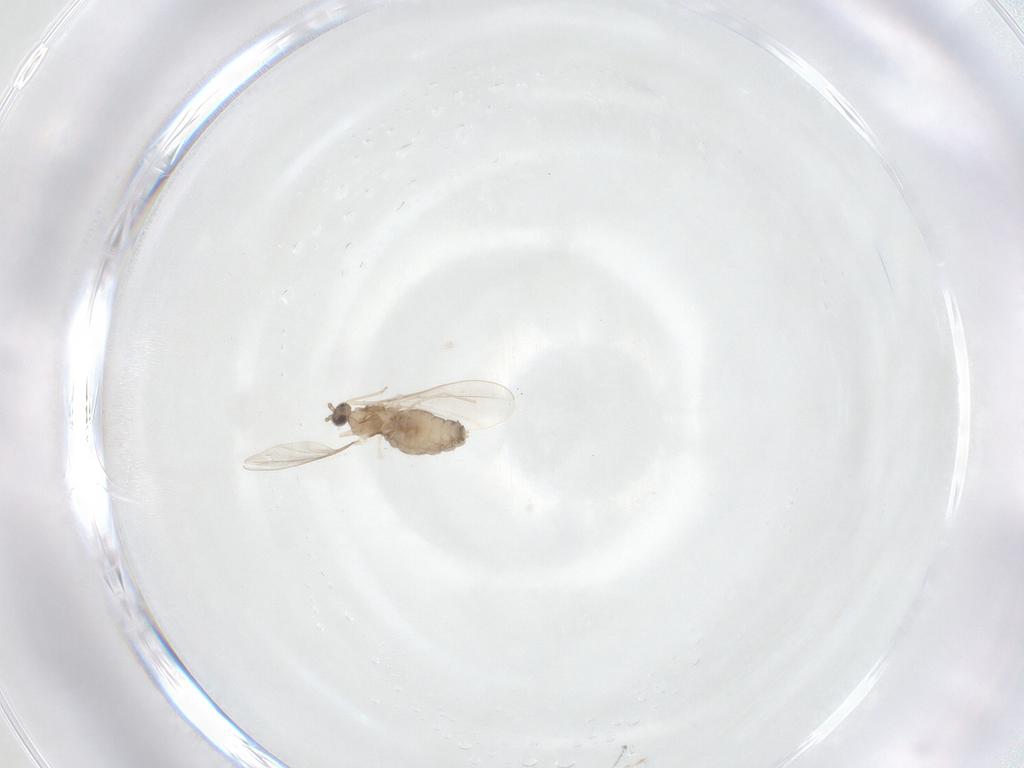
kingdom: Animalia
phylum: Arthropoda
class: Insecta
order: Diptera
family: Cecidomyiidae
